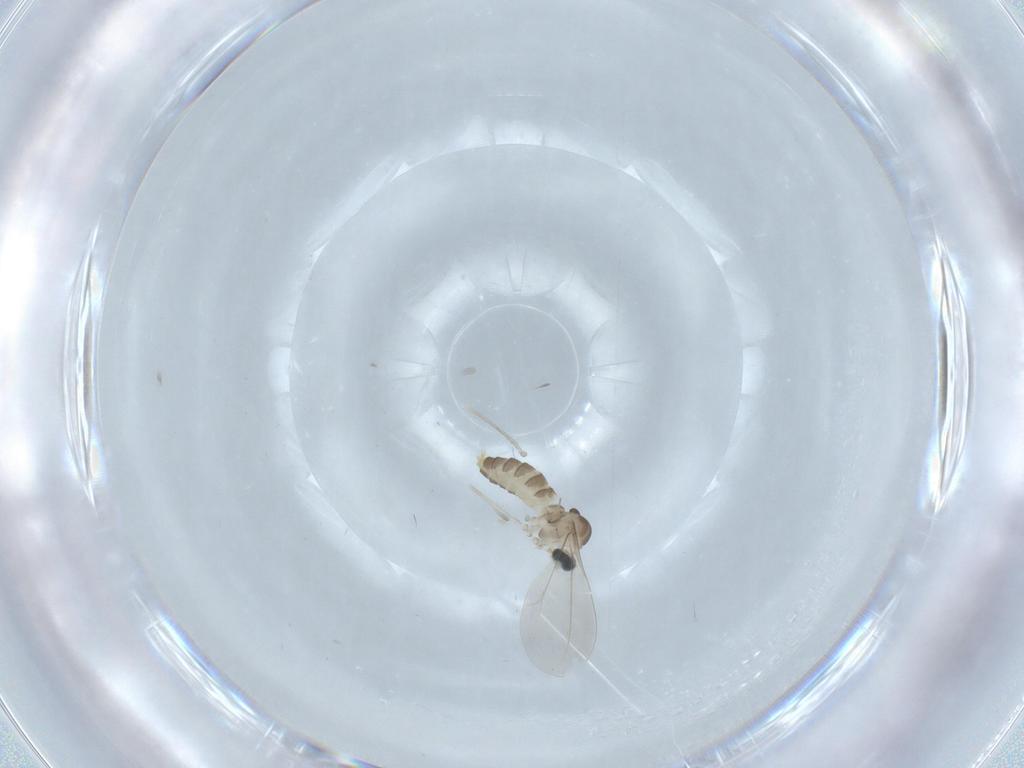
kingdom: Animalia
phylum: Arthropoda
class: Insecta
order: Diptera
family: Cecidomyiidae
